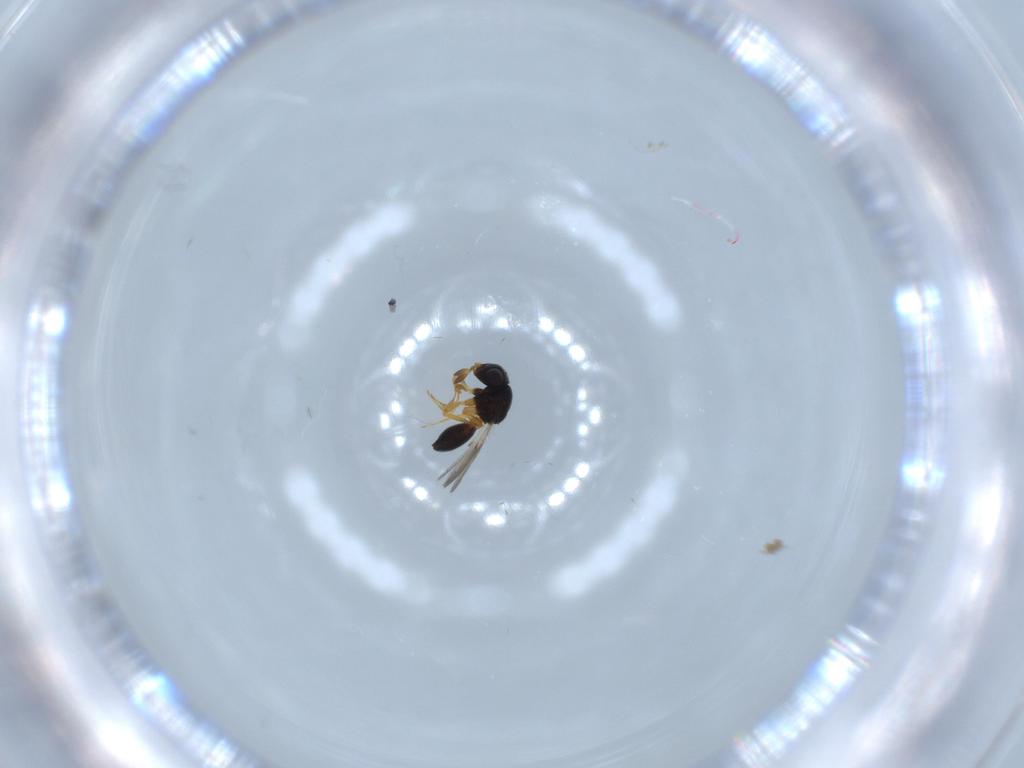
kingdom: Animalia
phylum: Arthropoda
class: Insecta
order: Hymenoptera
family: Scelionidae
